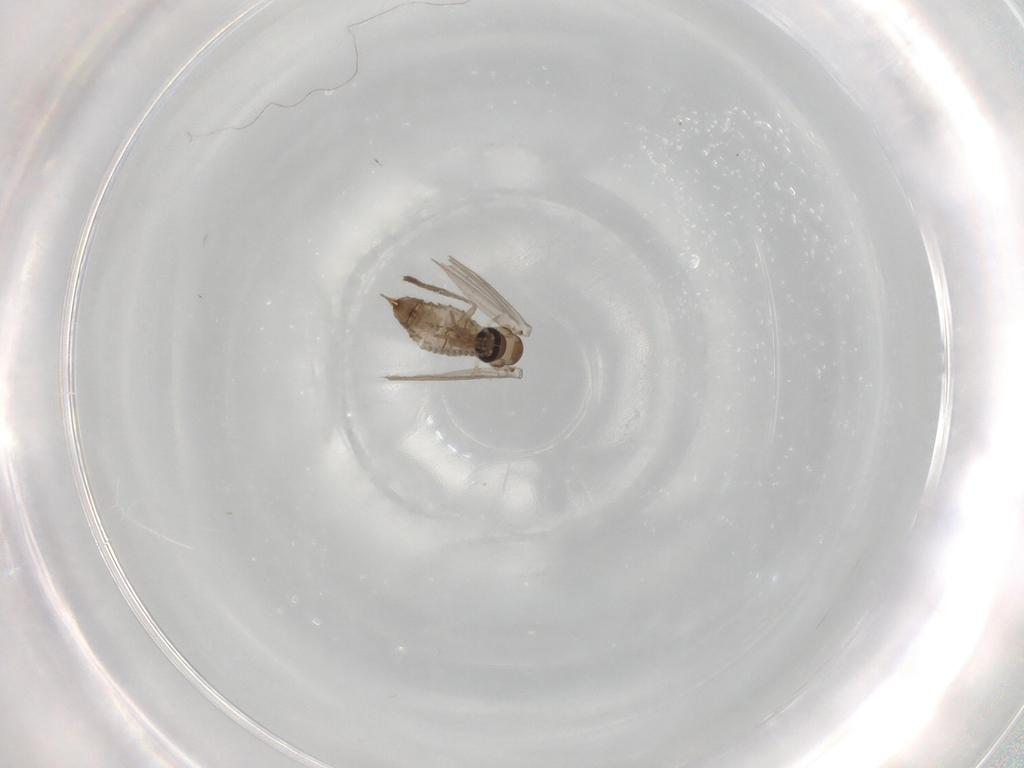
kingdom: Animalia
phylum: Arthropoda
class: Insecta
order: Diptera
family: Psychodidae
